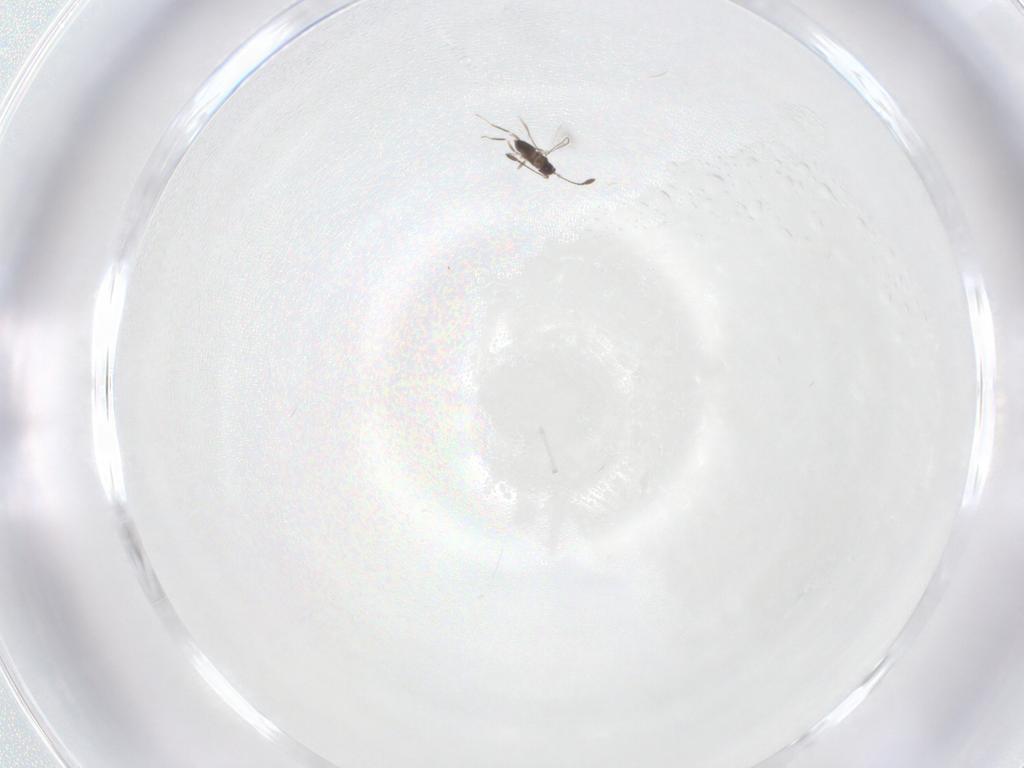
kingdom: Animalia
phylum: Arthropoda
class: Insecta
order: Hymenoptera
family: Mymaridae
